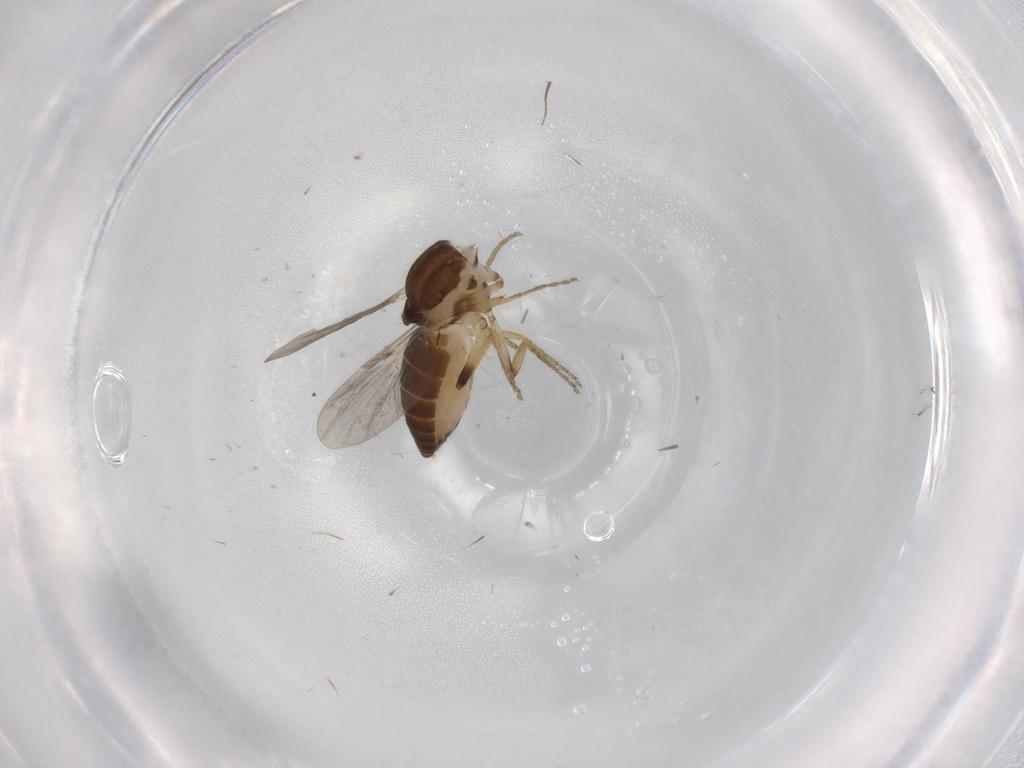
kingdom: Animalia
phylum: Arthropoda
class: Insecta
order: Diptera
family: Ceratopogonidae
